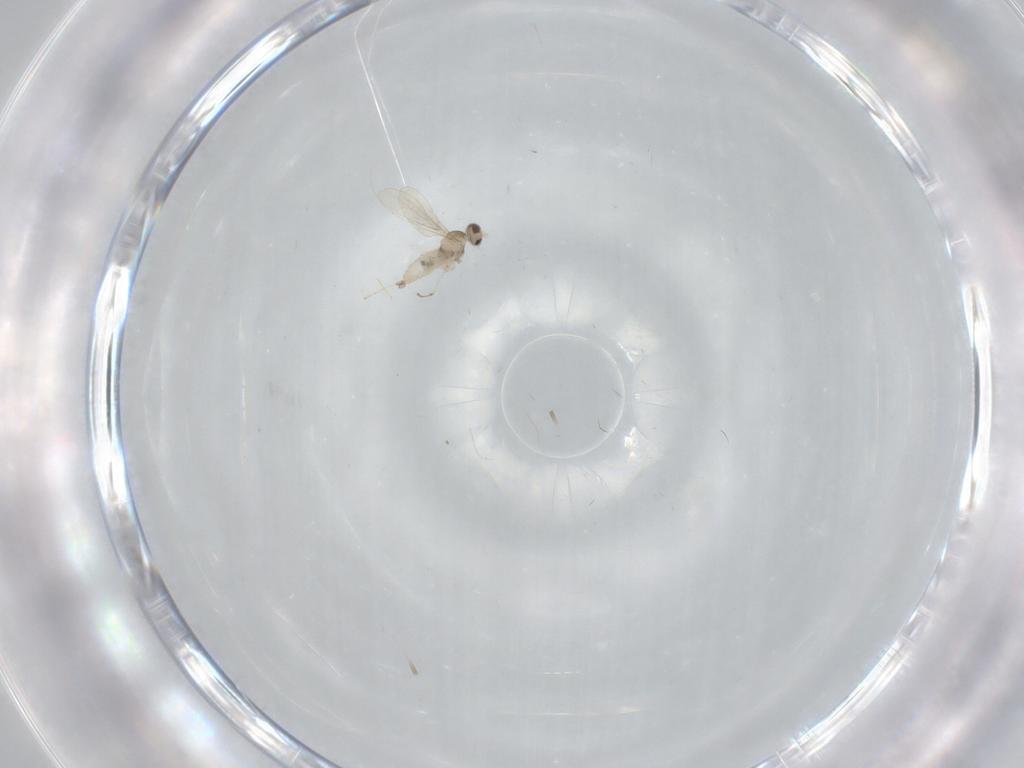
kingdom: Animalia
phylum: Arthropoda
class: Insecta
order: Diptera
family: Cecidomyiidae
